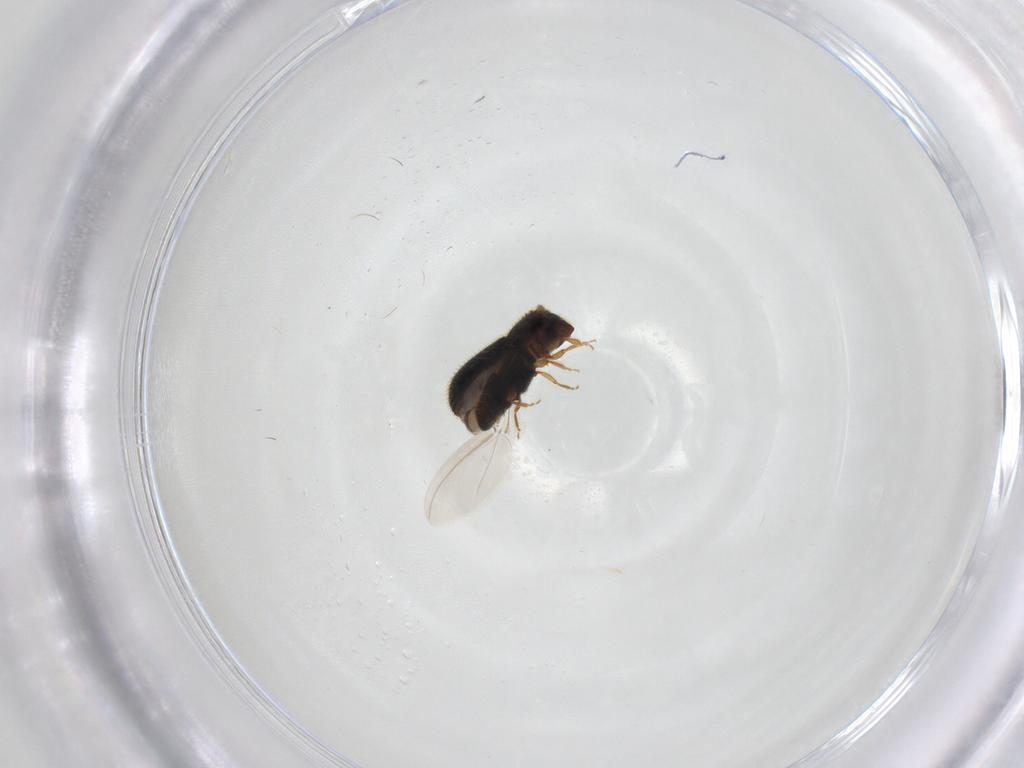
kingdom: Animalia
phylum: Arthropoda
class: Insecta
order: Coleoptera
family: Curculionidae
